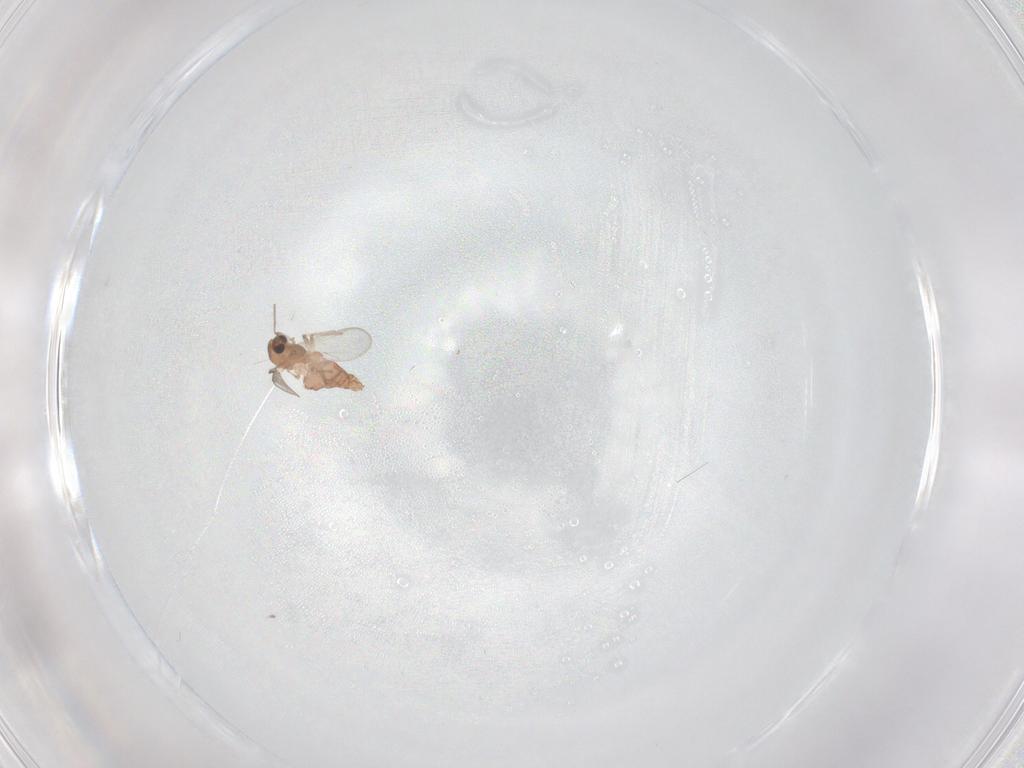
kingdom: Animalia
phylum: Arthropoda
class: Insecta
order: Diptera
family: Chironomidae
